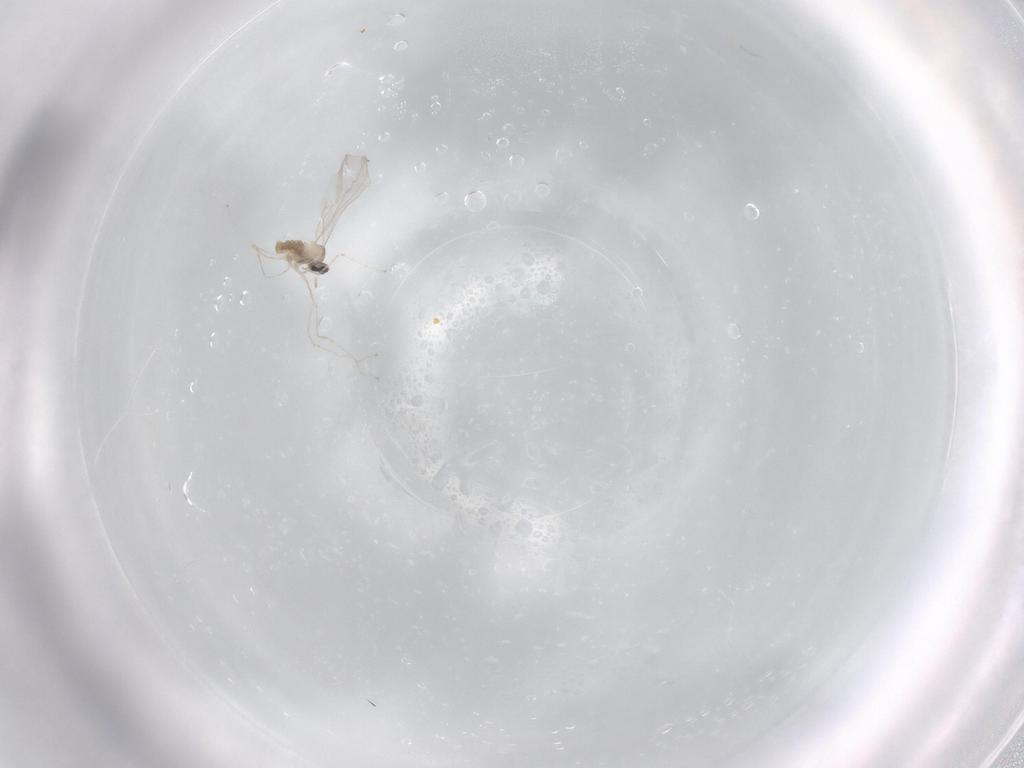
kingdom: Animalia
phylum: Arthropoda
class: Insecta
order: Diptera
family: Cecidomyiidae
